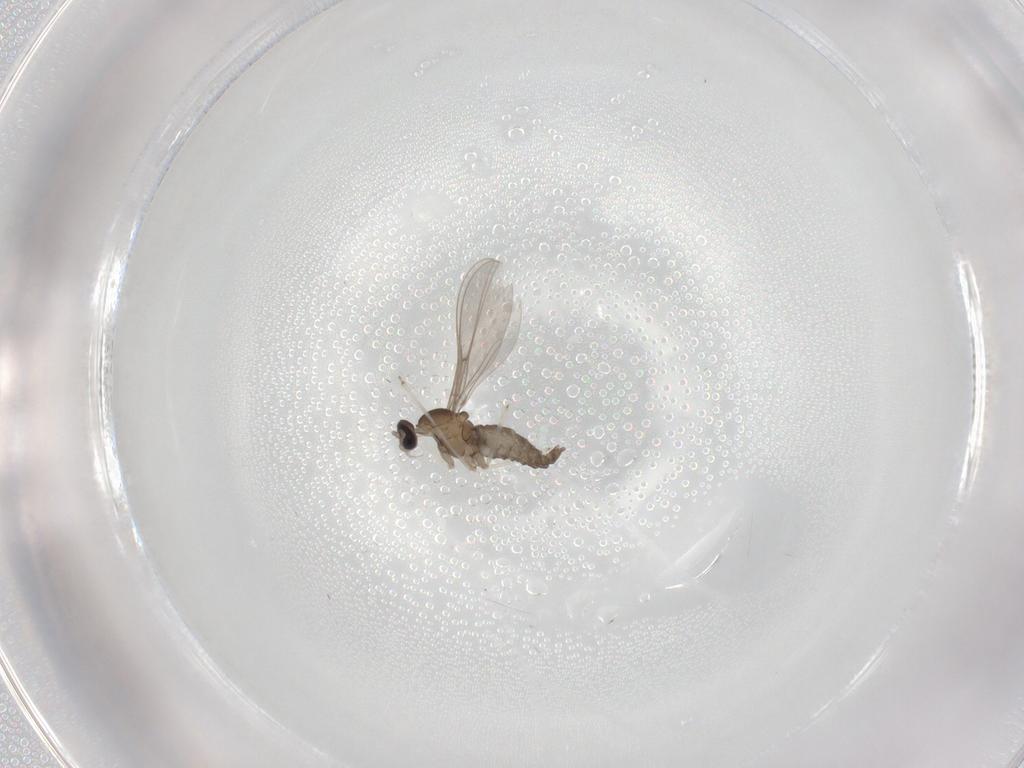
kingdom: Animalia
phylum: Arthropoda
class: Insecta
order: Diptera
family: Cecidomyiidae
